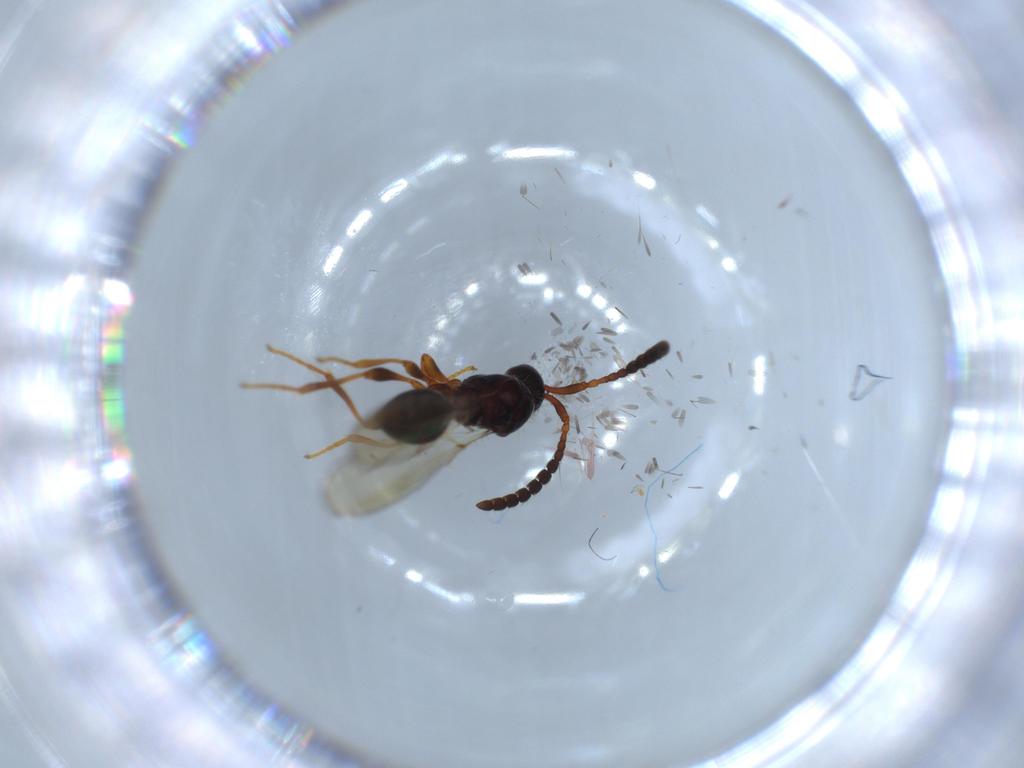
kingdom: Animalia
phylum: Arthropoda
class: Insecta
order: Hymenoptera
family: Diapriidae
